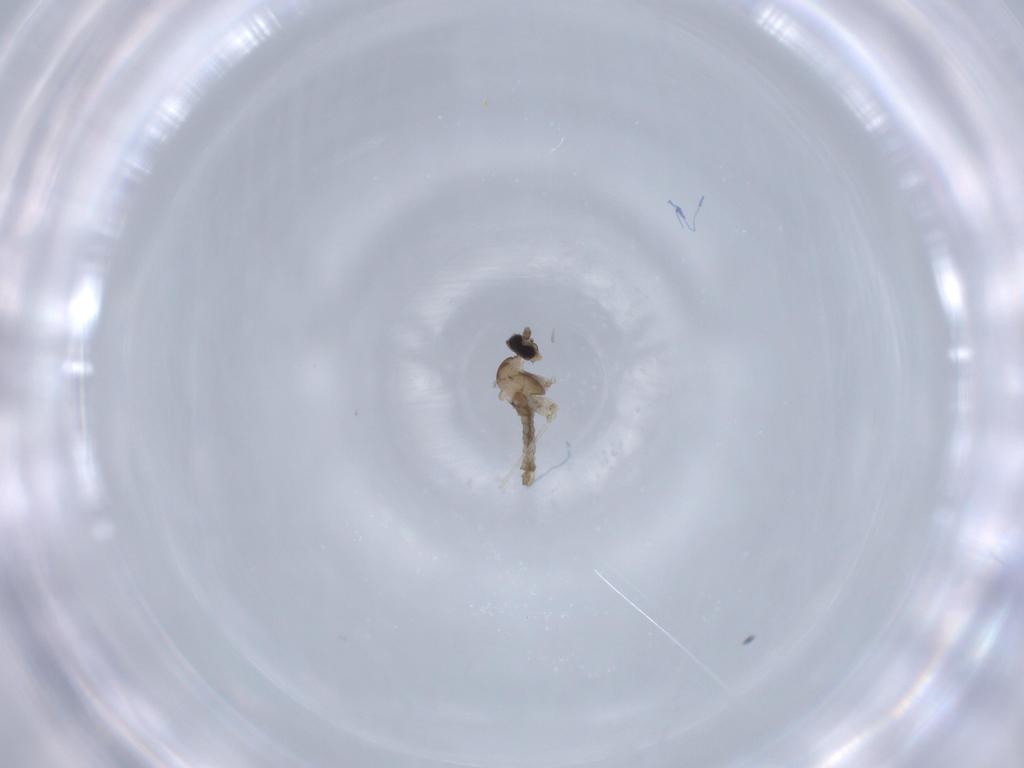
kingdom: Animalia
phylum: Arthropoda
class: Insecta
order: Diptera
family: Cecidomyiidae
